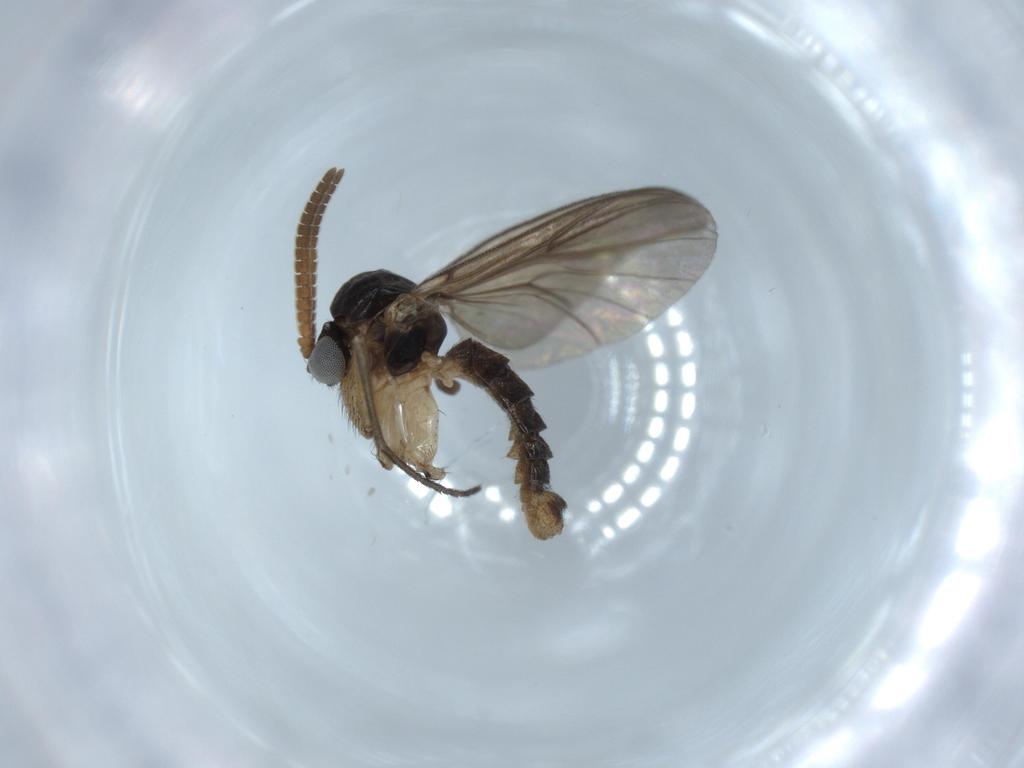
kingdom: Animalia
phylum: Arthropoda
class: Insecta
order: Diptera
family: Mycetophilidae
